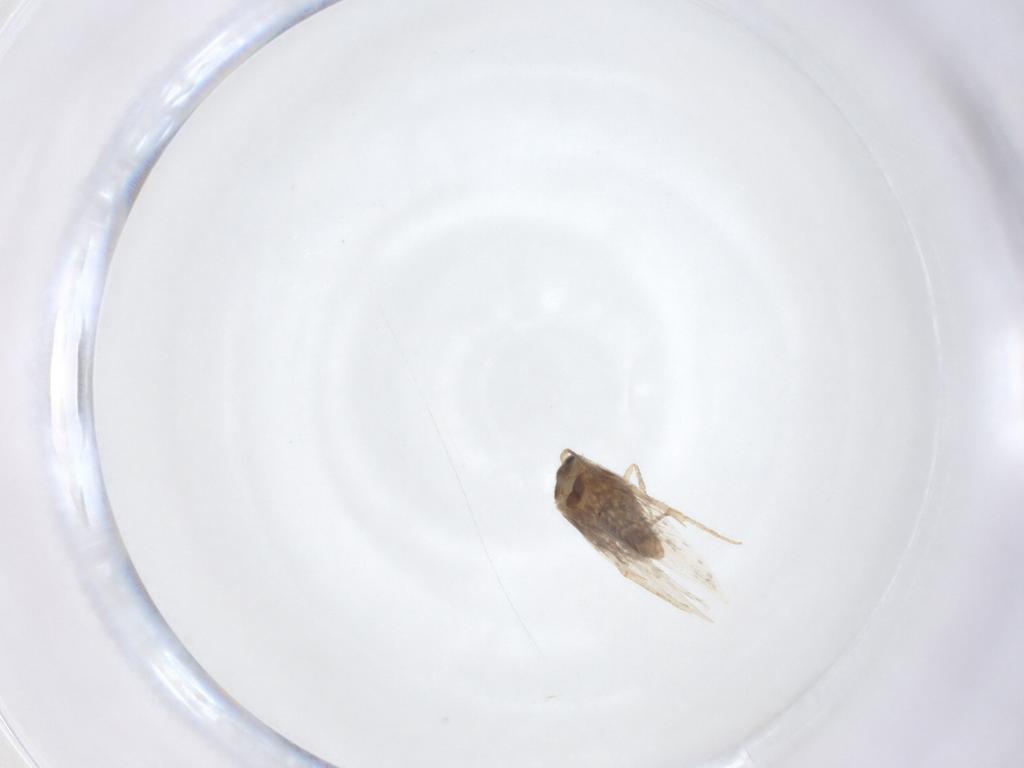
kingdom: Animalia
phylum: Arthropoda
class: Insecta
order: Lepidoptera
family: Nepticulidae
